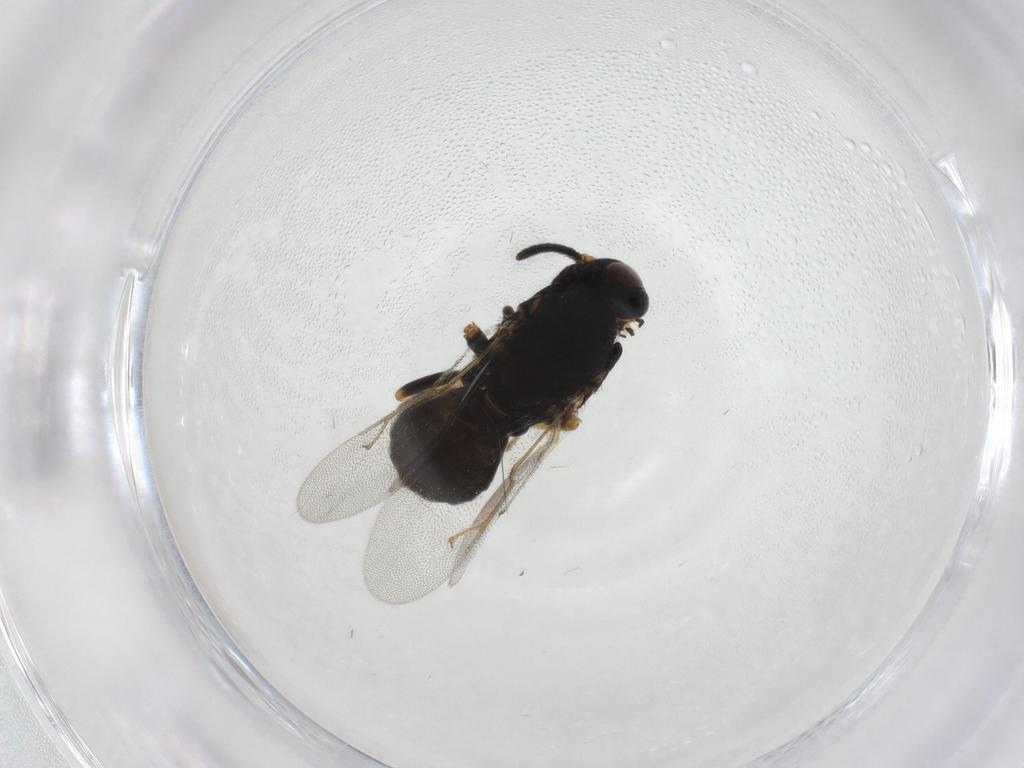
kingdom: Animalia
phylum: Arthropoda
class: Insecta
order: Hymenoptera
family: Encyrtidae
